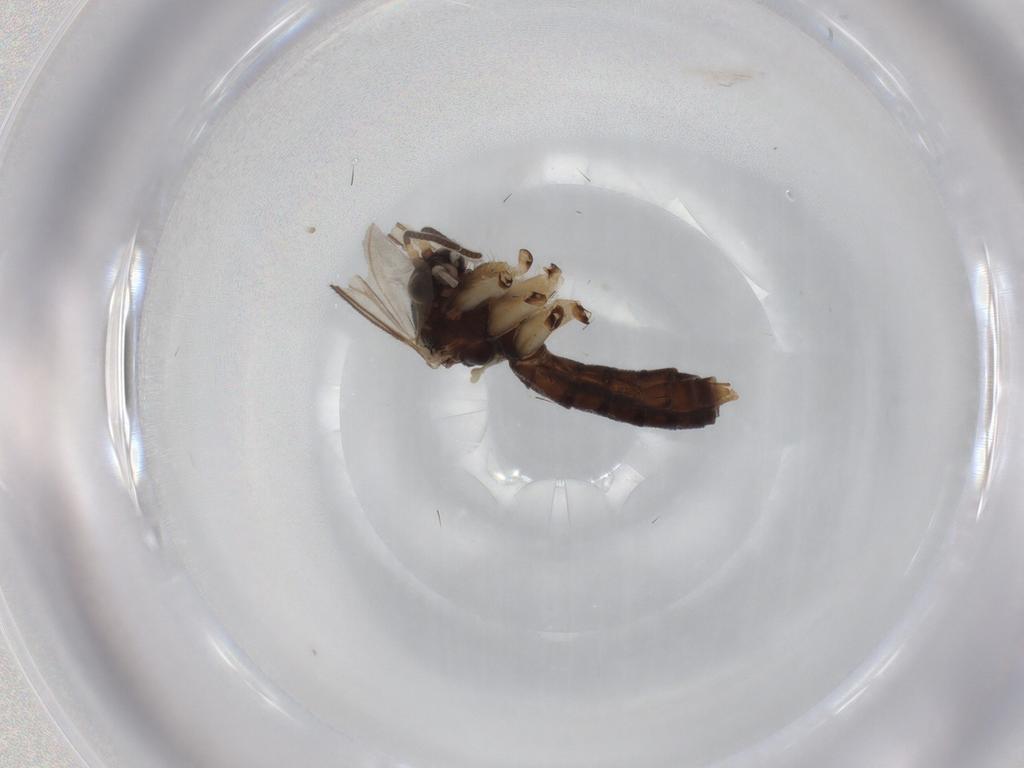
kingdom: Animalia
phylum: Arthropoda
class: Insecta
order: Diptera
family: Chironomidae
